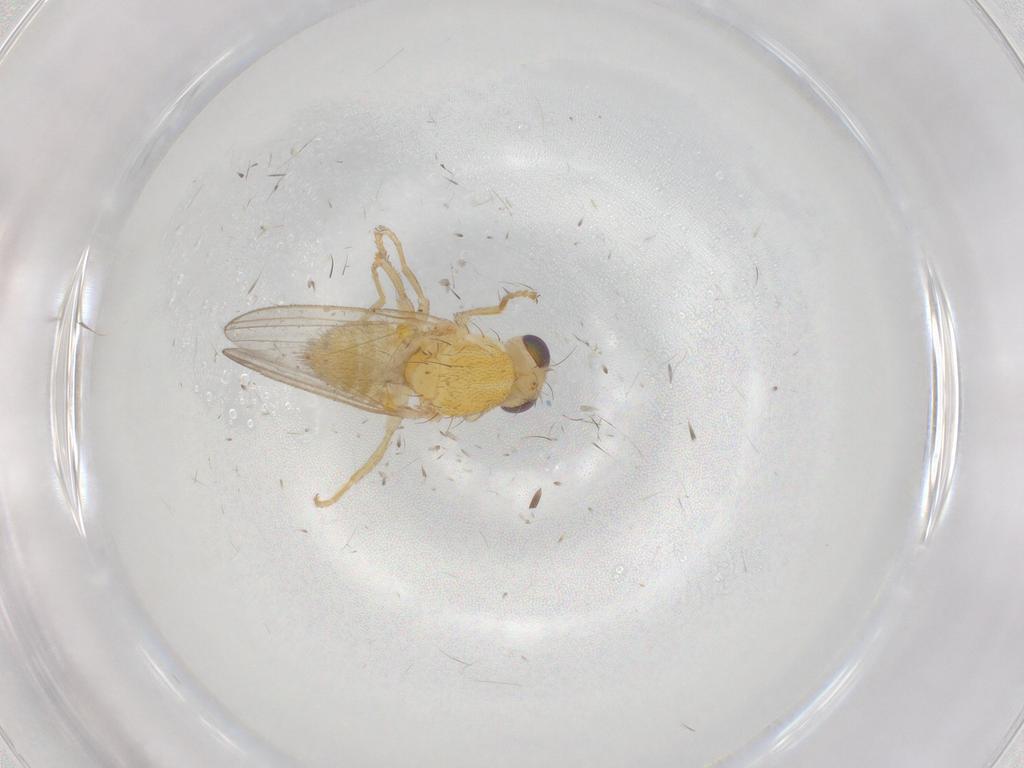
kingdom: Animalia
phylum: Arthropoda
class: Insecta
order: Diptera
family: Chyromyidae
